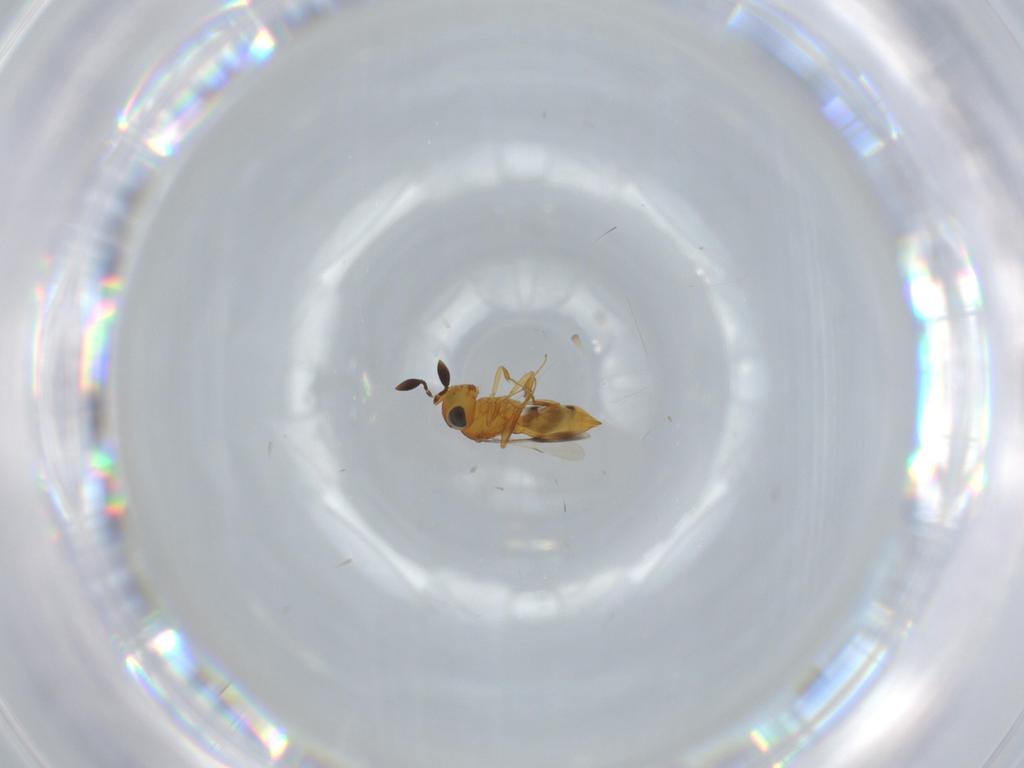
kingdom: Animalia
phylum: Arthropoda
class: Insecta
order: Hymenoptera
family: Scelionidae
